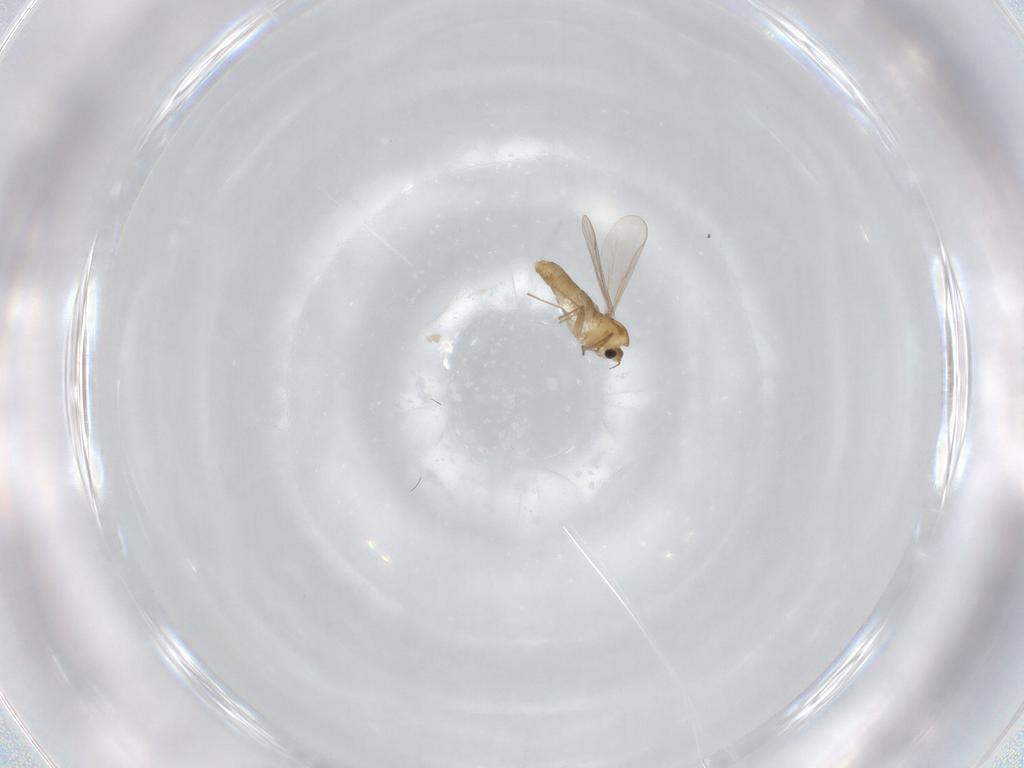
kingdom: Animalia
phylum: Arthropoda
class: Insecta
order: Diptera
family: Chironomidae
